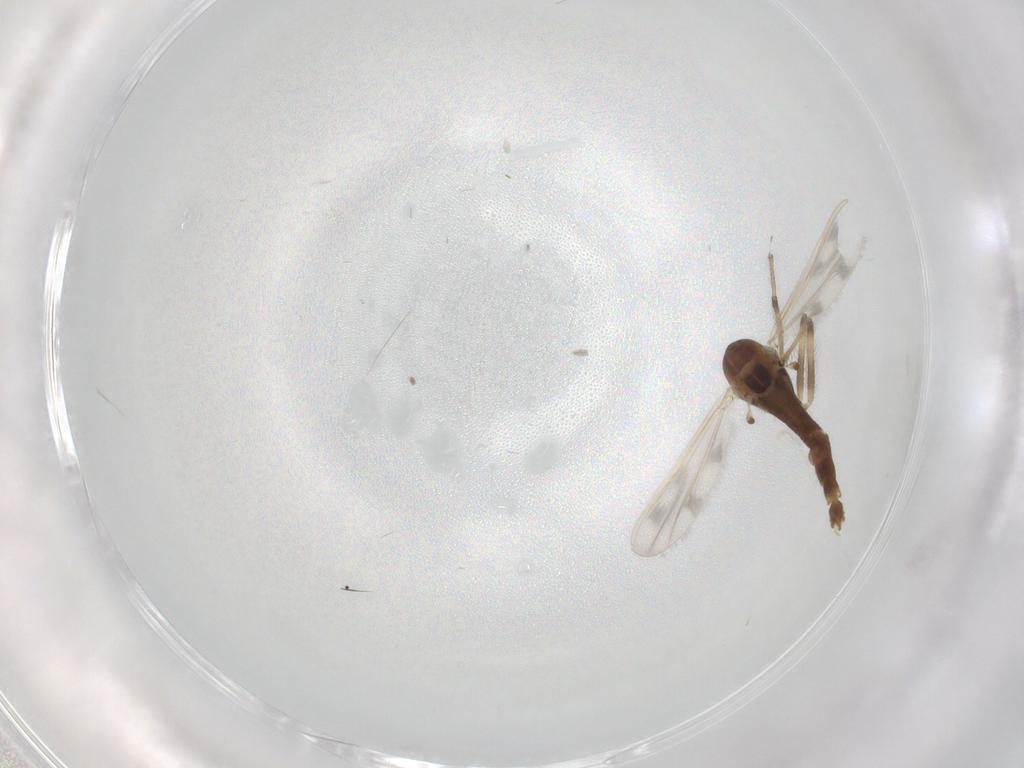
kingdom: Animalia
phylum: Arthropoda
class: Insecta
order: Diptera
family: Chironomidae
